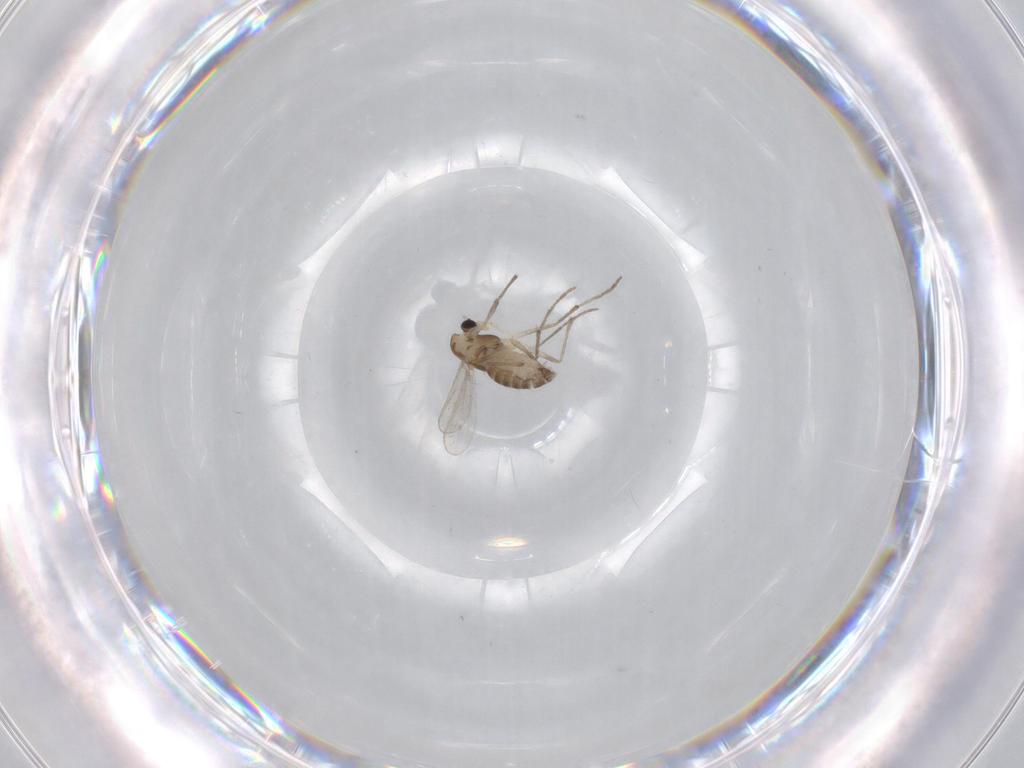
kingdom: Animalia
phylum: Arthropoda
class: Insecta
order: Diptera
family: Chironomidae
